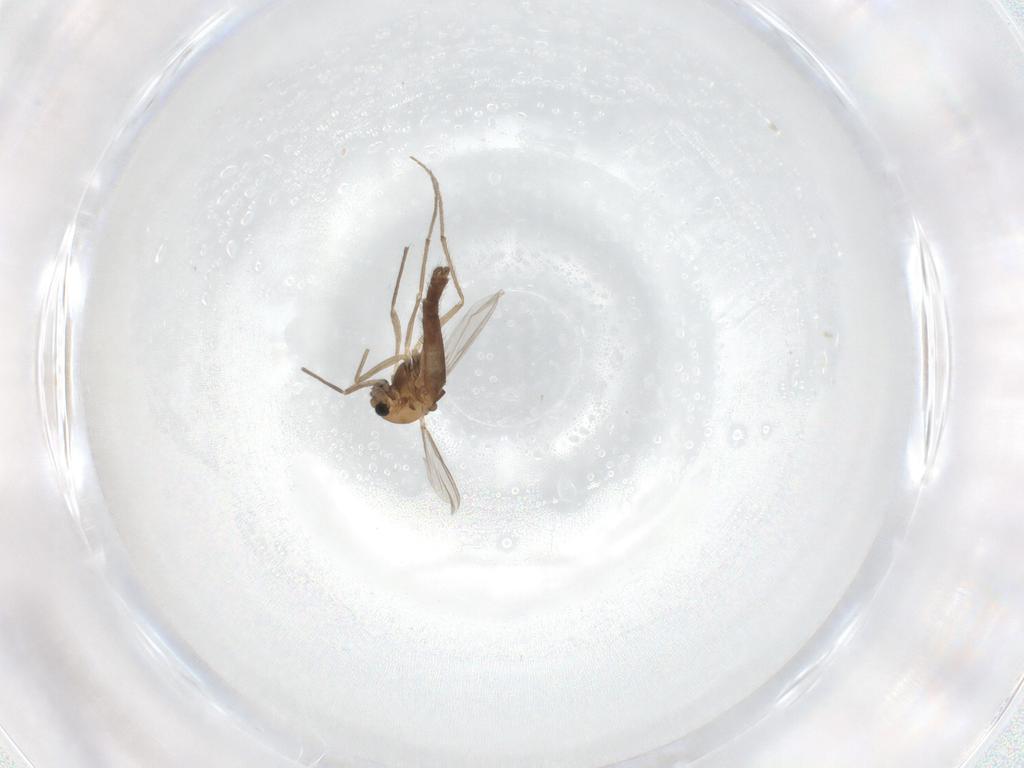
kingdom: Animalia
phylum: Arthropoda
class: Insecta
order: Diptera
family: Chironomidae
